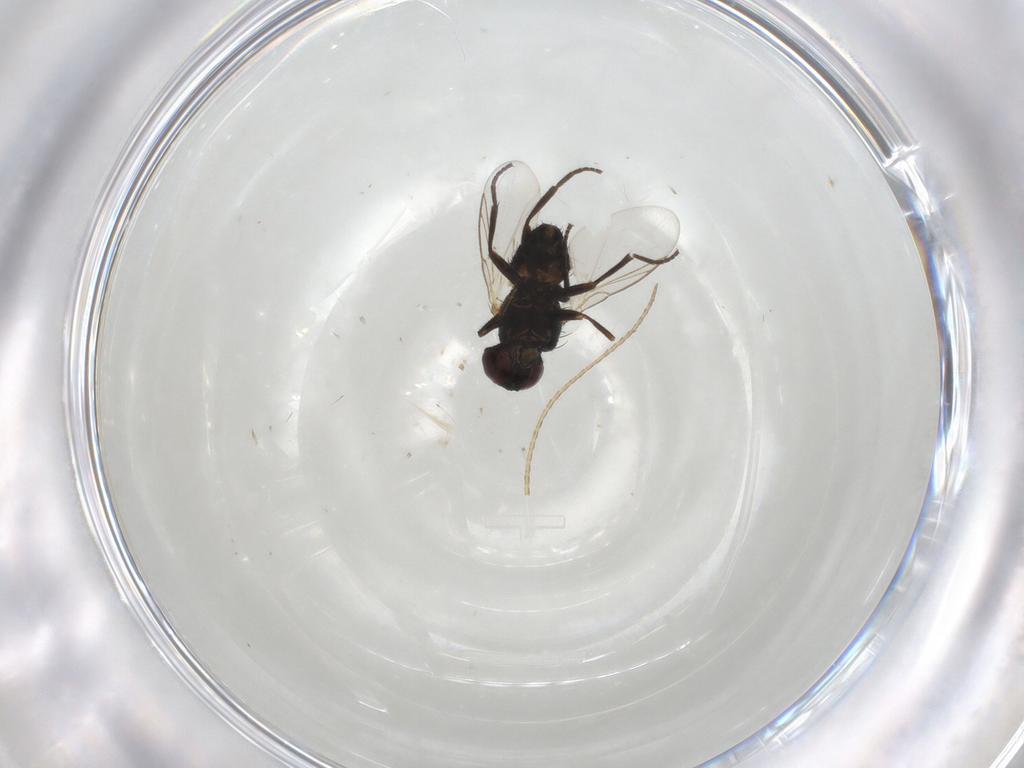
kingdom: Animalia
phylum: Arthropoda
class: Insecta
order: Diptera
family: Agromyzidae
